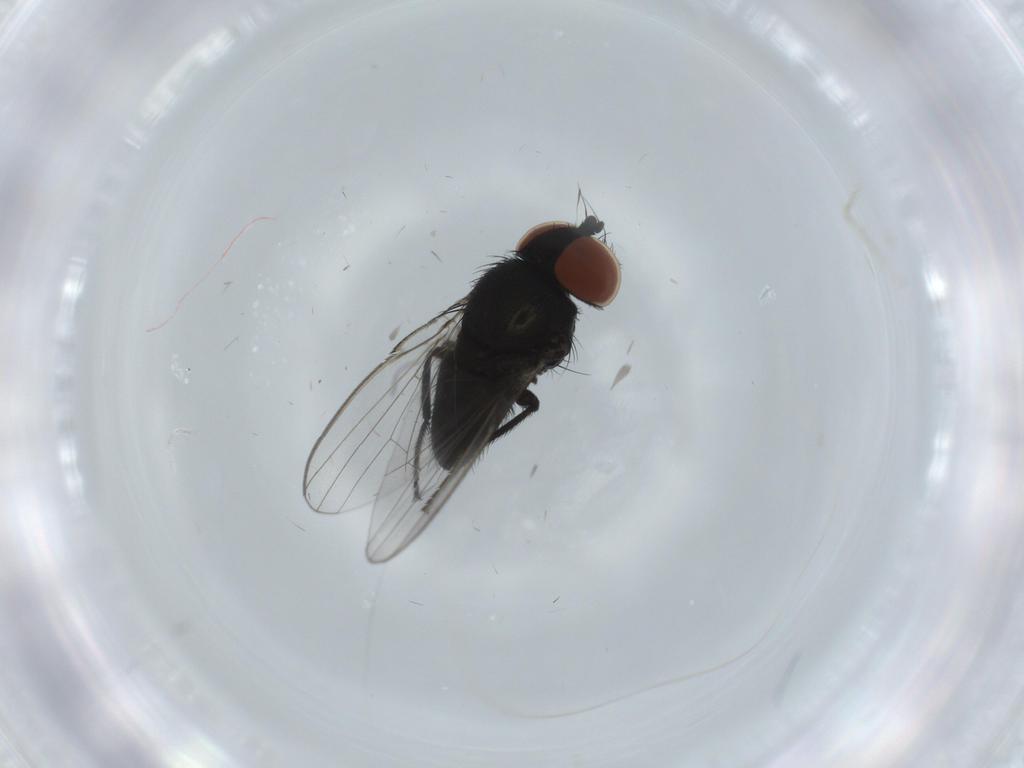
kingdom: Animalia
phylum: Arthropoda
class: Insecta
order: Diptera
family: Milichiidae
